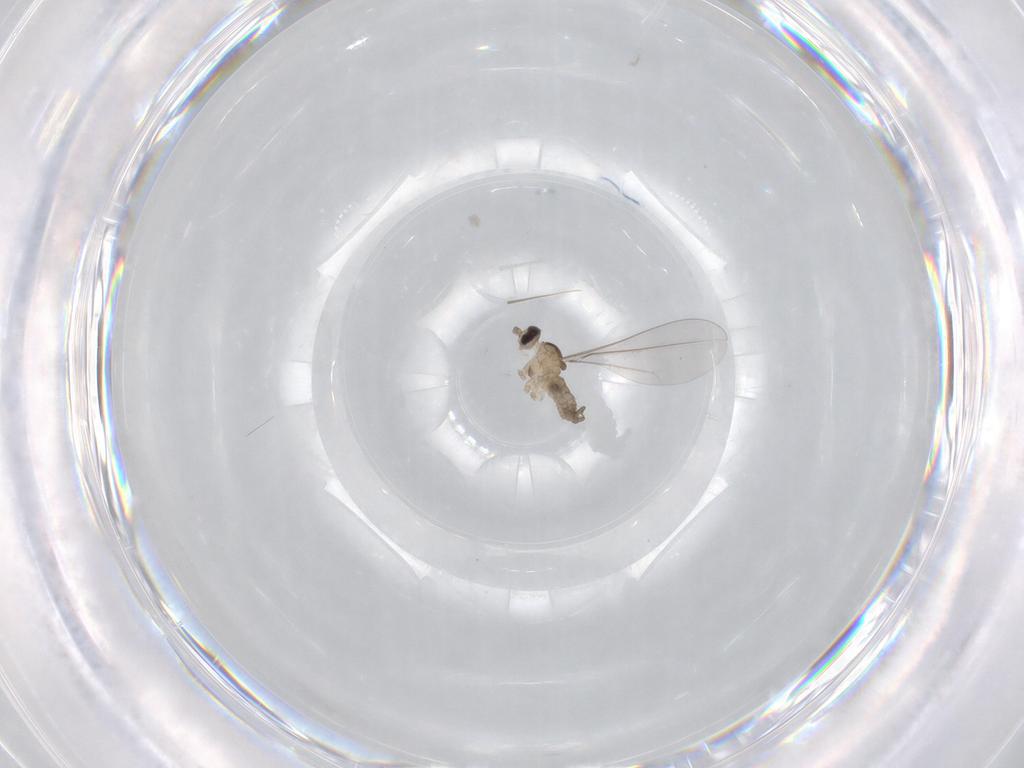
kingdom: Animalia
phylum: Arthropoda
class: Insecta
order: Diptera
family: Cecidomyiidae
